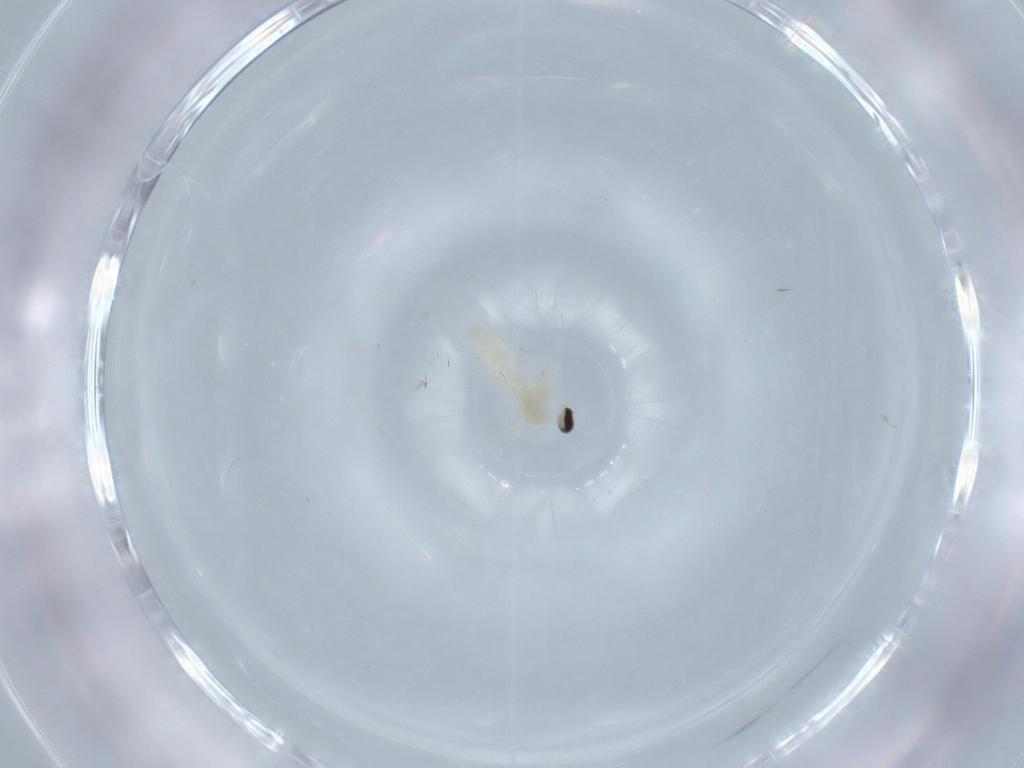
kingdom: Animalia
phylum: Arthropoda
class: Insecta
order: Diptera
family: Cecidomyiidae
